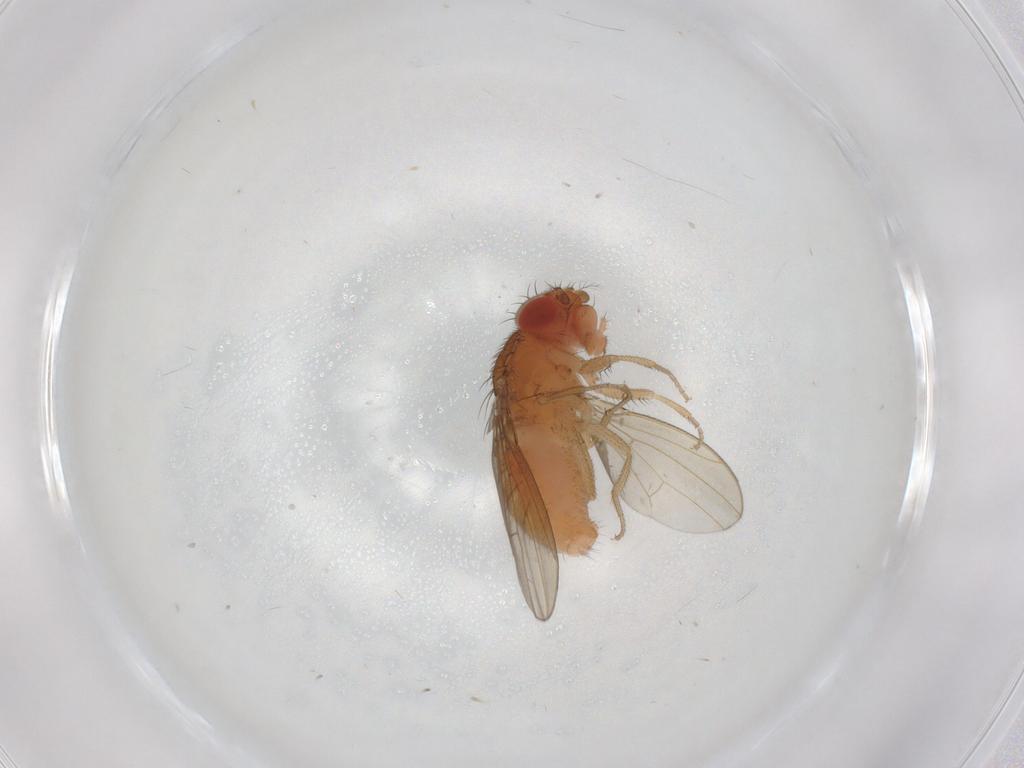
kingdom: Animalia
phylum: Arthropoda
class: Insecta
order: Diptera
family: Drosophilidae
